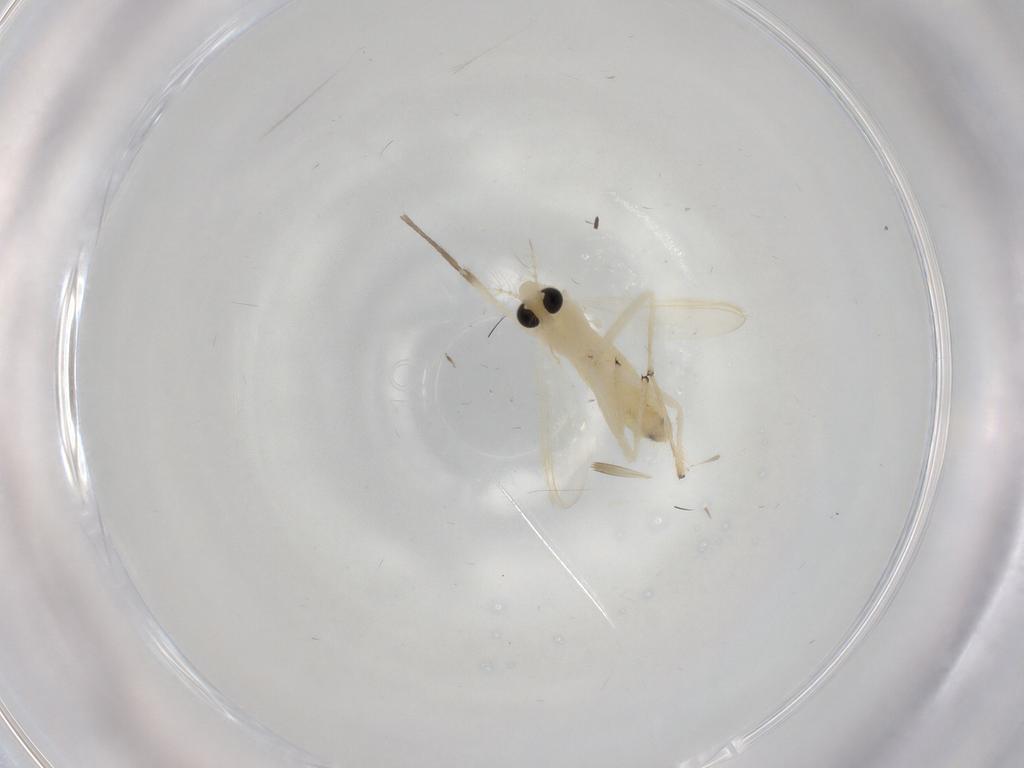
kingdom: Animalia
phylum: Arthropoda
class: Insecta
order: Diptera
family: Chironomidae
